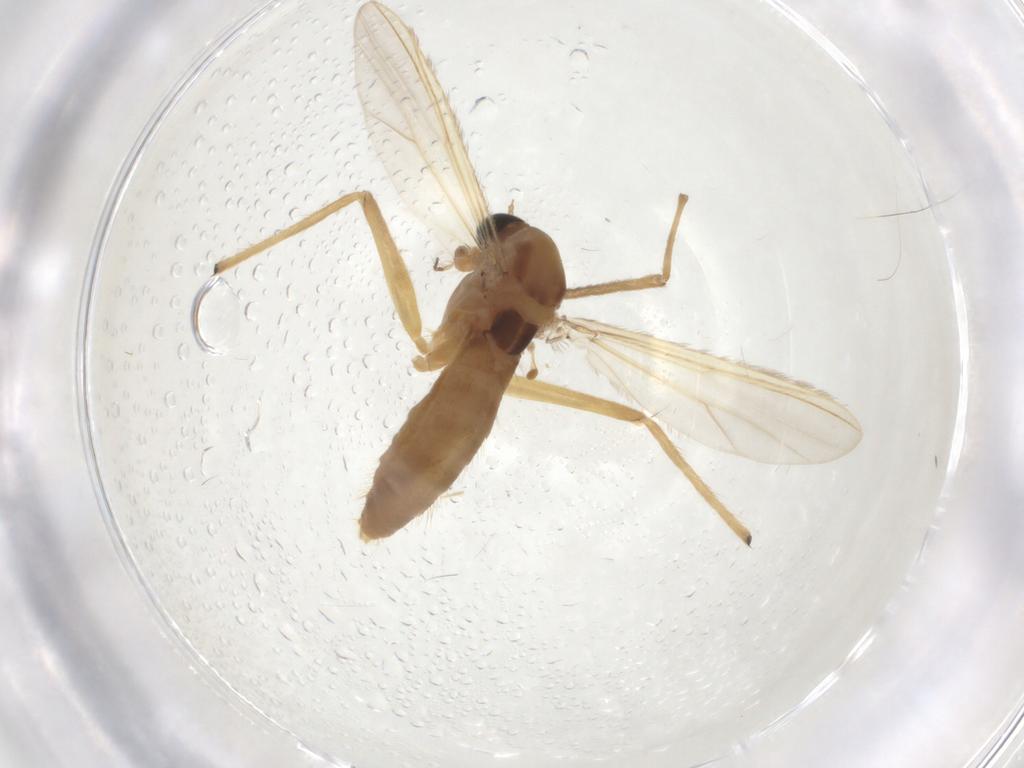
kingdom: Animalia
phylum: Arthropoda
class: Insecta
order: Diptera
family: Chironomidae
